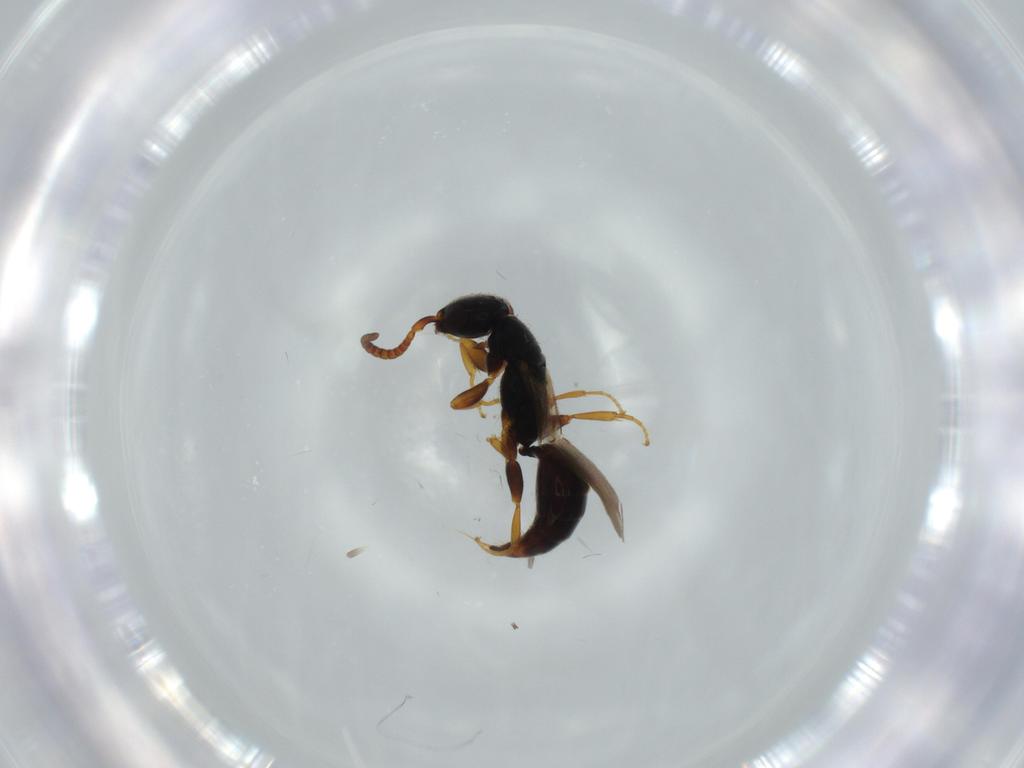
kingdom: Animalia
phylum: Arthropoda
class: Insecta
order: Hymenoptera
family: Bethylidae
